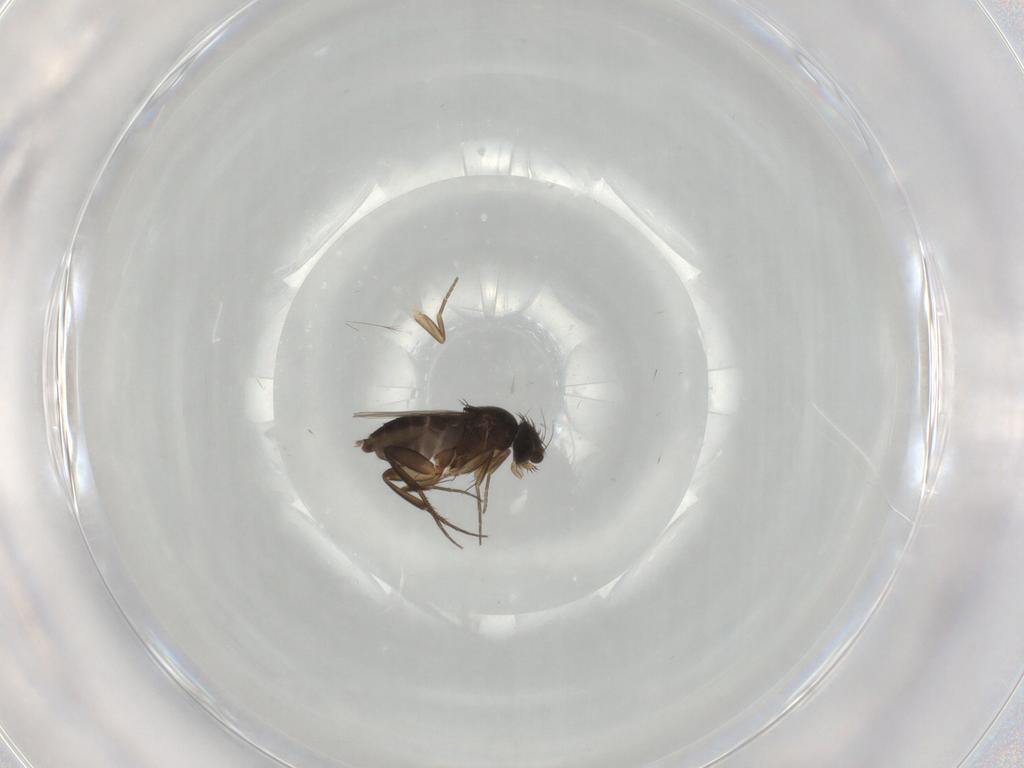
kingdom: Animalia
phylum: Arthropoda
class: Insecta
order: Diptera
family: Phoridae
